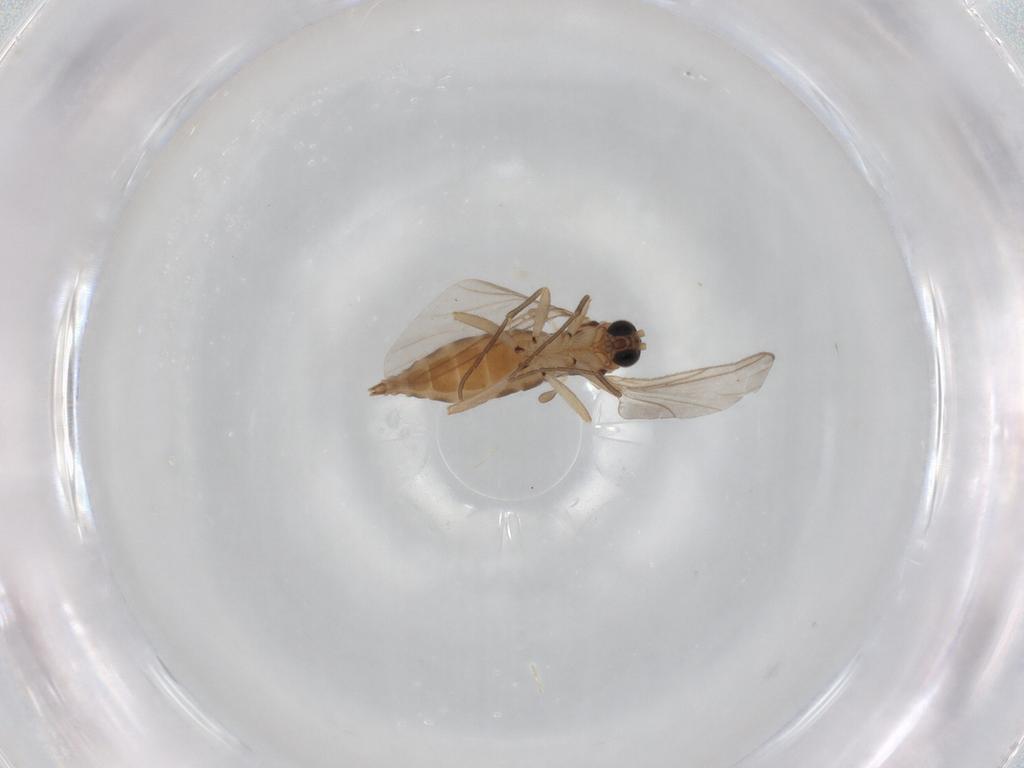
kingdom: Animalia
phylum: Arthropoda
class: Insecta
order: Diptera
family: Sciaridae
